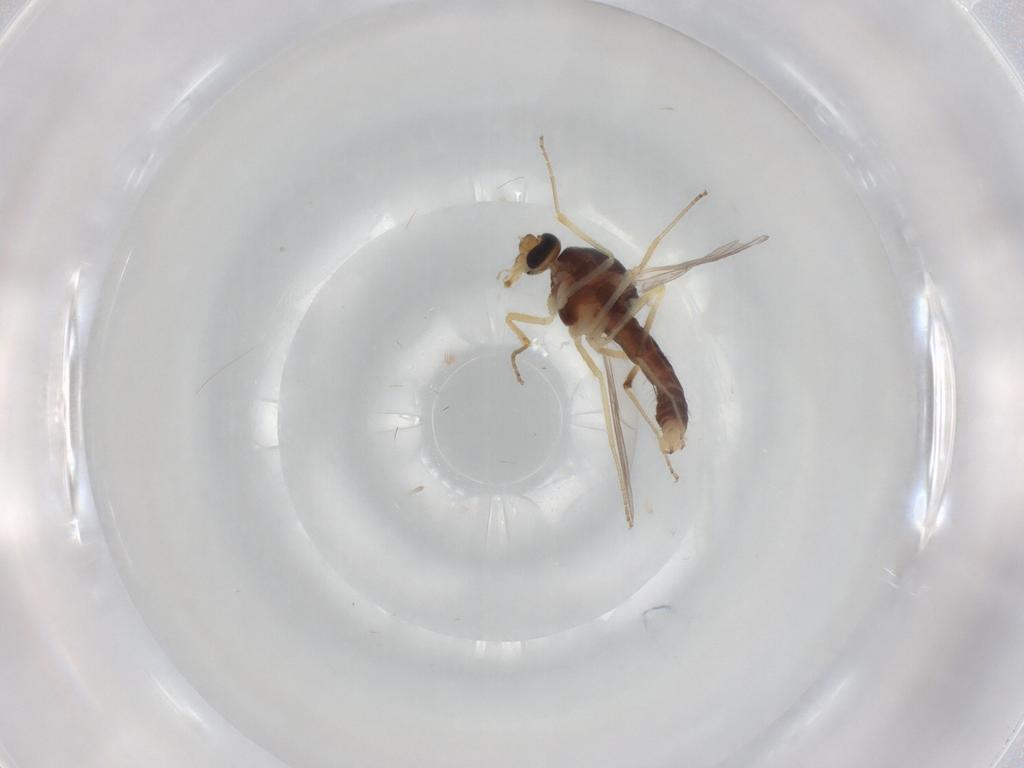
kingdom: Animalia
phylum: Arthropoda
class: Insecta
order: Diptera
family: Ceratopogonidae
